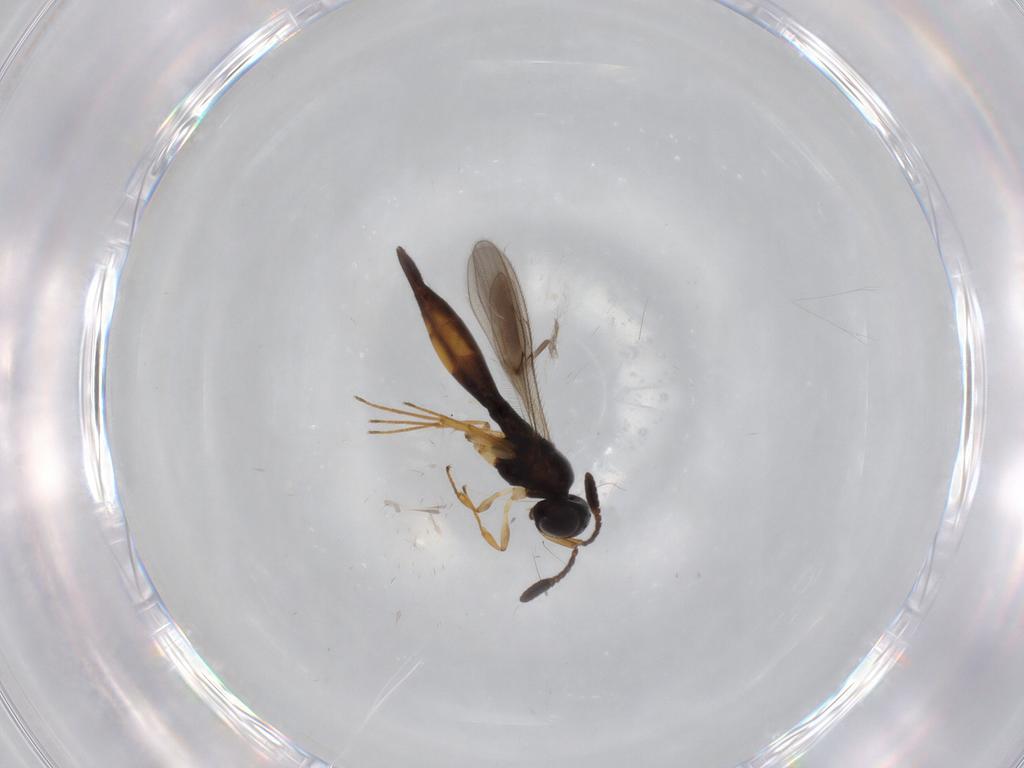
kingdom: Animalia
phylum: Arthropoda
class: Insecta
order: Hymenoptera
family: Scelionidae
